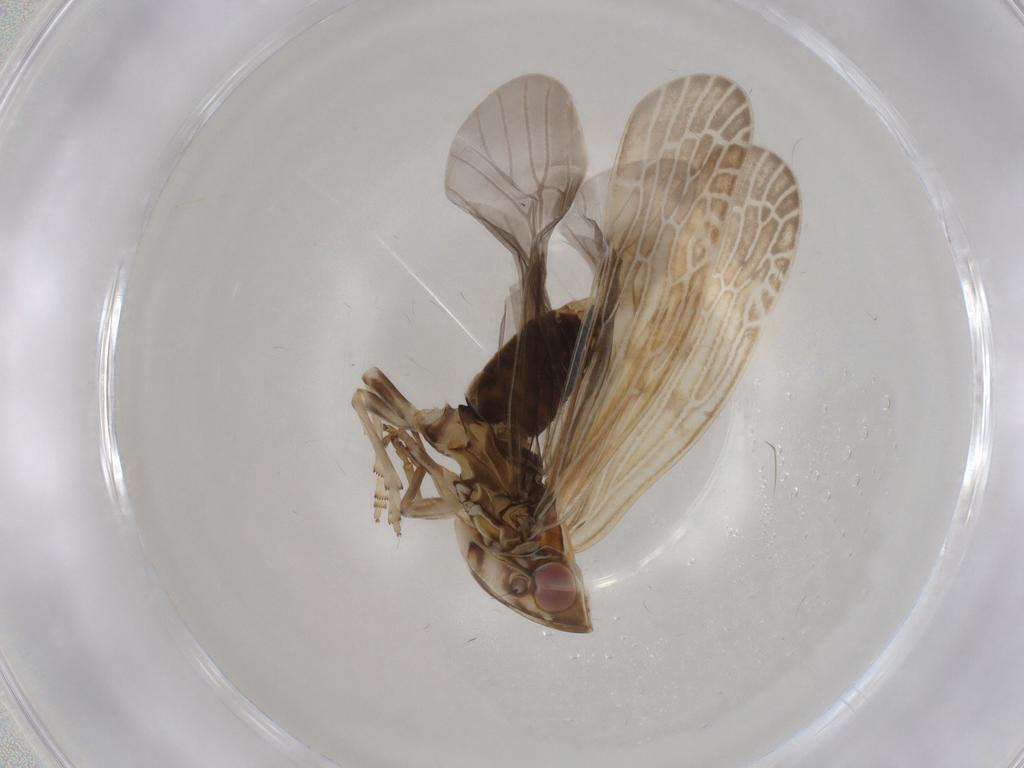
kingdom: Animalia
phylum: Arthropoda
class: Insecta
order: Hemiptera
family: Achilidae
